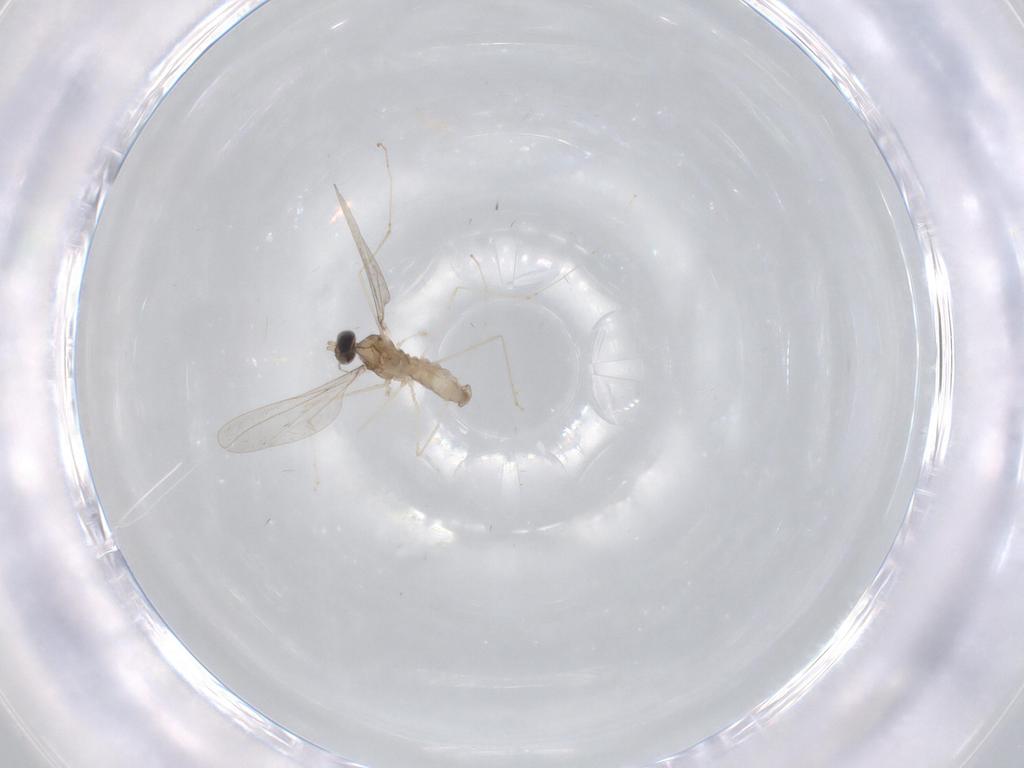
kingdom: Animalia
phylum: Arthropoda
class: Insecta
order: Diptera
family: Cecidomyiidae
